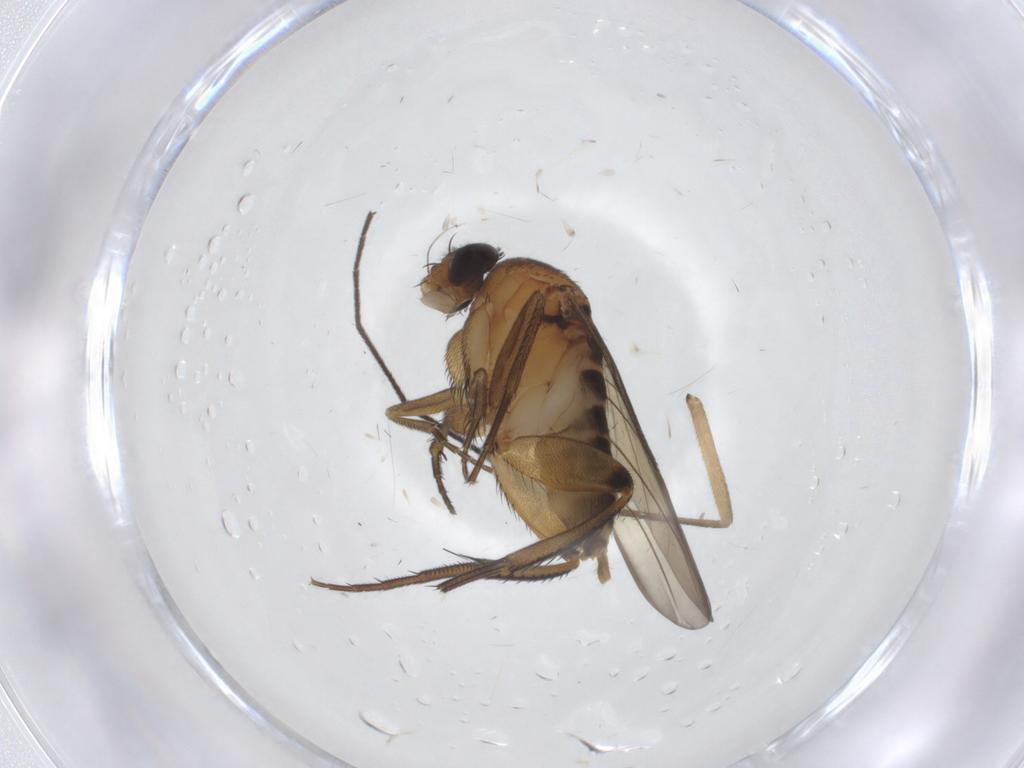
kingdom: Animalia
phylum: Arthropoda
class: Insecta
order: Diptera
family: Mycetophilidae
